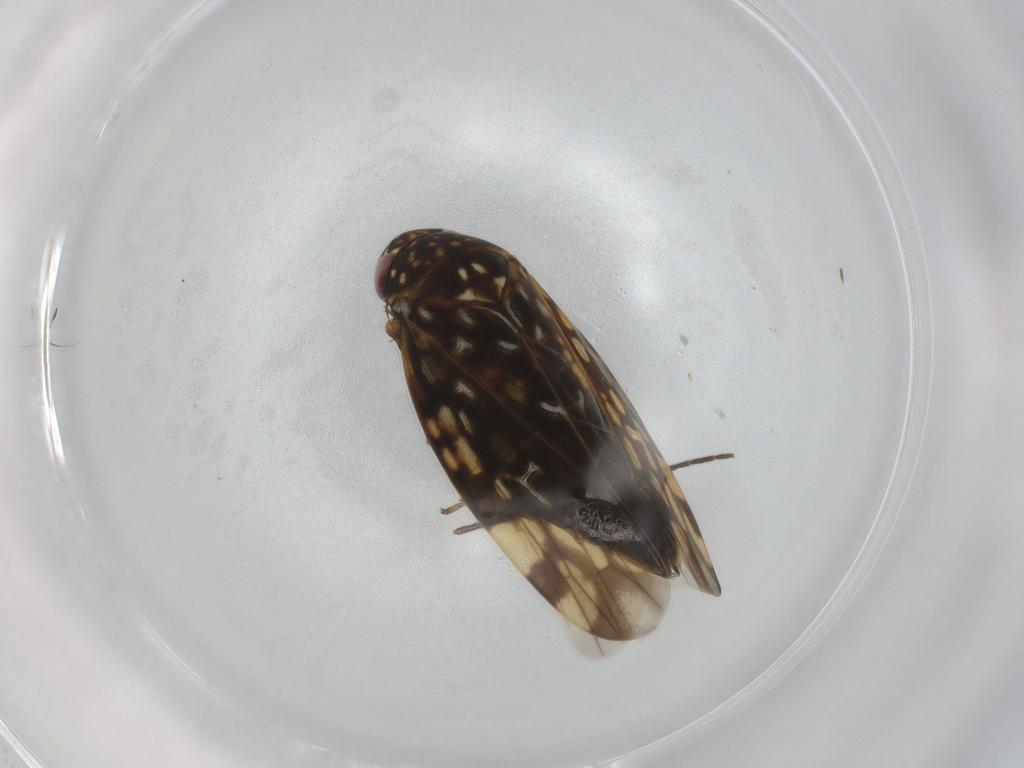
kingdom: Animalia
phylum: Arthropoda
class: Insecta
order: Hemiptera
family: Cicadellidae
